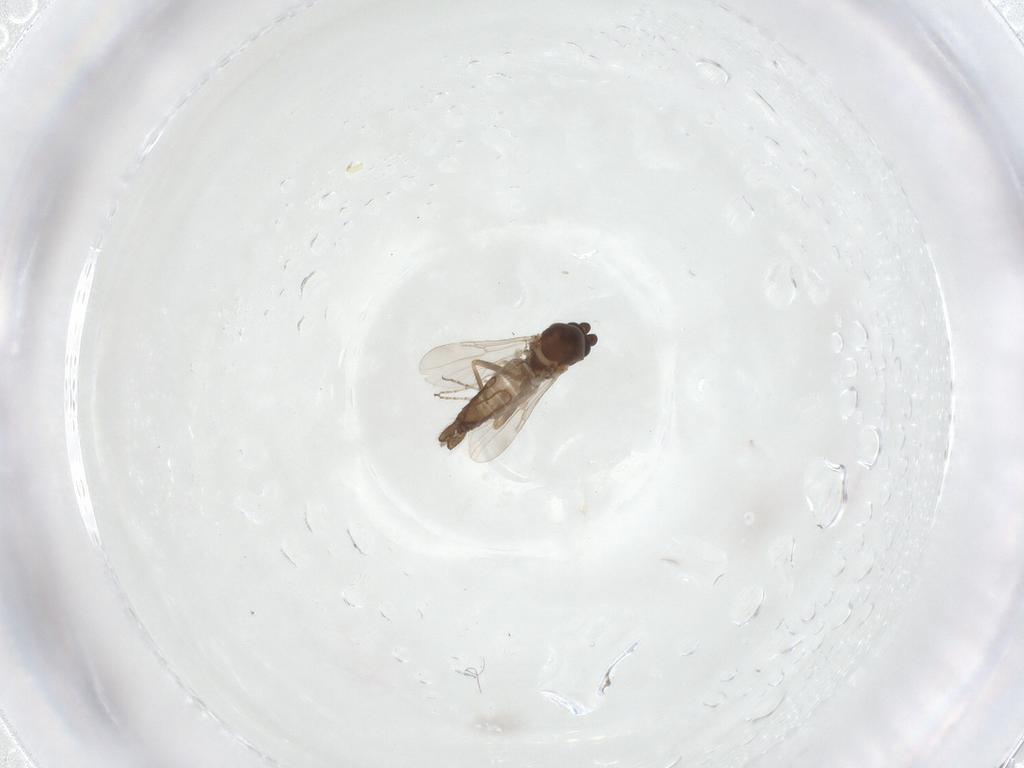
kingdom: Animalia
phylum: Arthropoda
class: Insecta
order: Diptera
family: Ceratopogonidae
